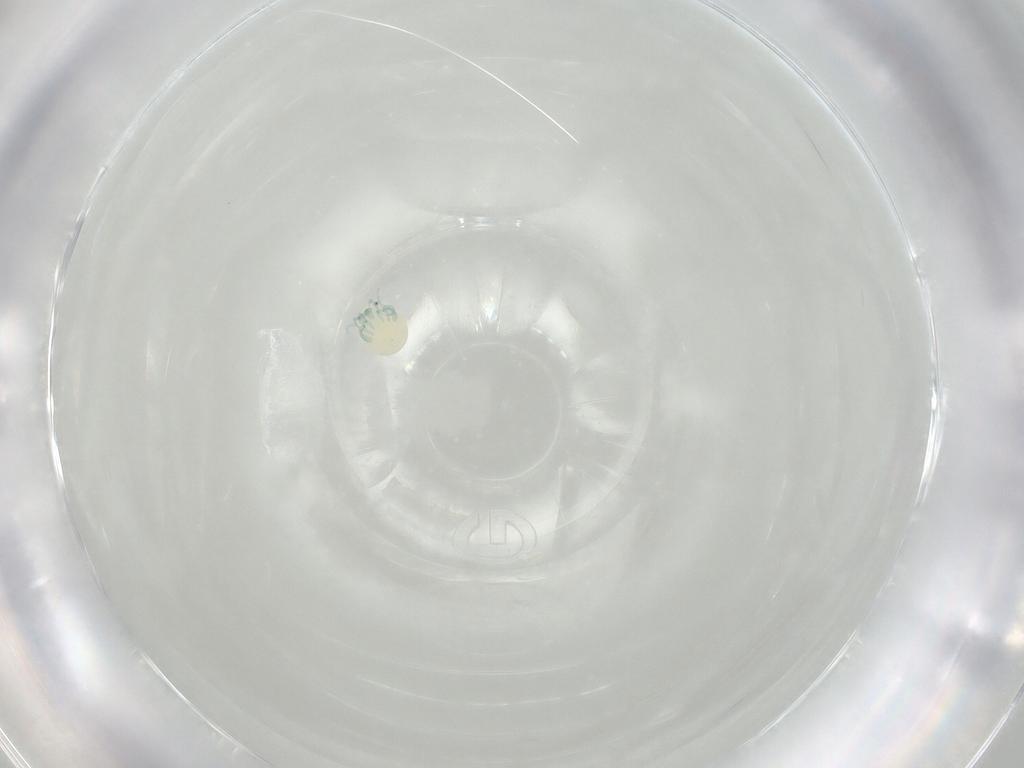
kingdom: Animalia
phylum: Arthropoda
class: Arachnida
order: Trombidiformes
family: Arrenuridae
